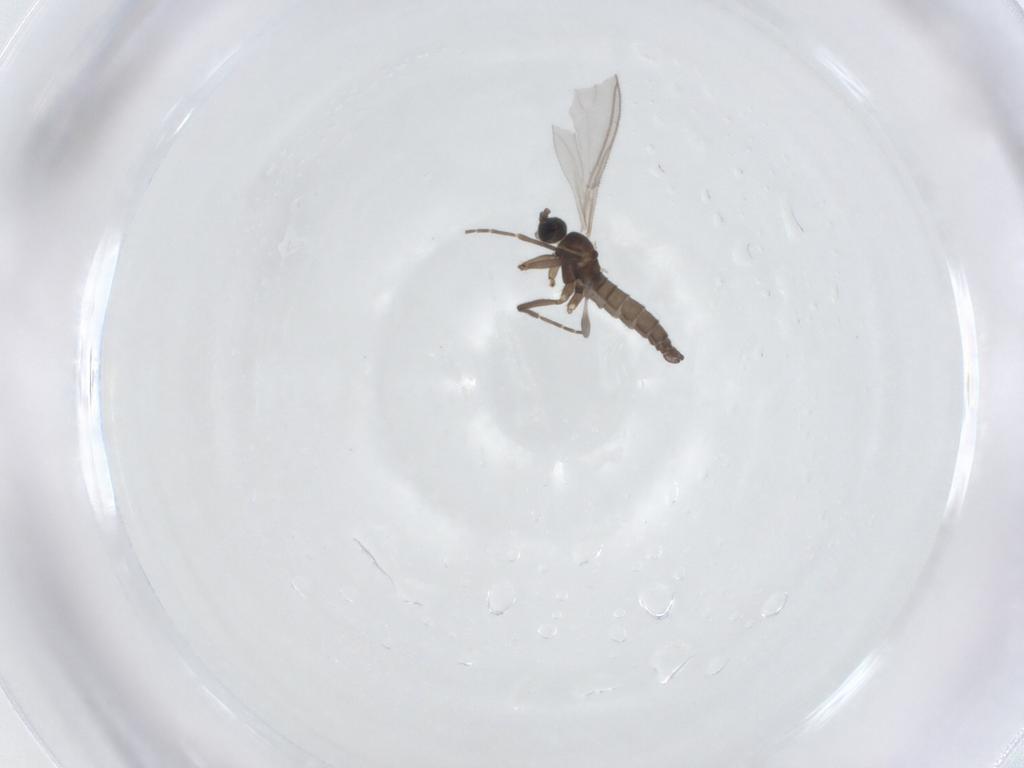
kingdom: Animalia
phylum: Arthropoda
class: Insecta
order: Diptera
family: Sciaridae
